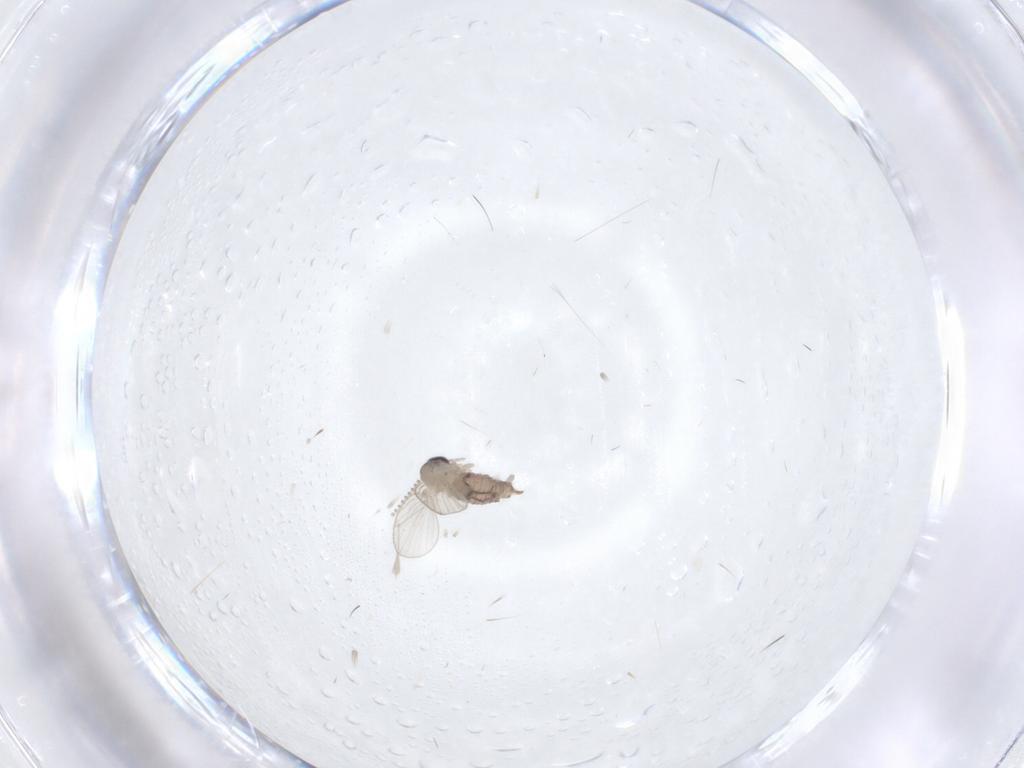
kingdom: Animalia
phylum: Arthropoda
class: Insecta
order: Diptera
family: Psychodidae
